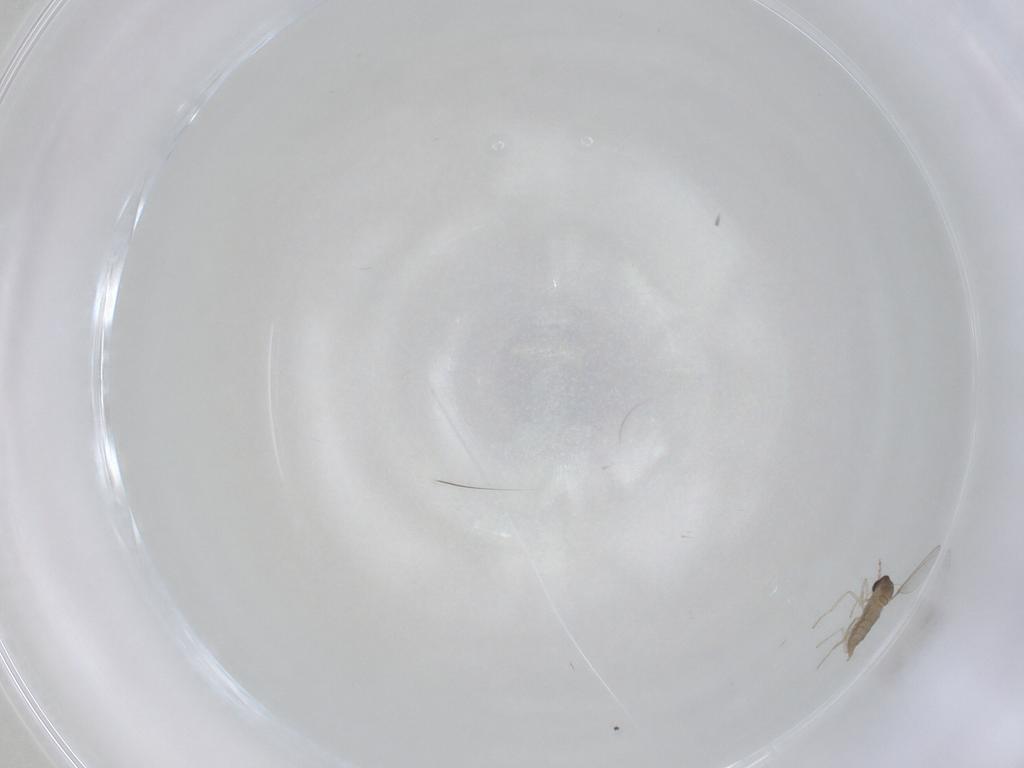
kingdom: Animalia
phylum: Arthropoda
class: Insecta
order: Diptera
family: Cecidomyiidae
